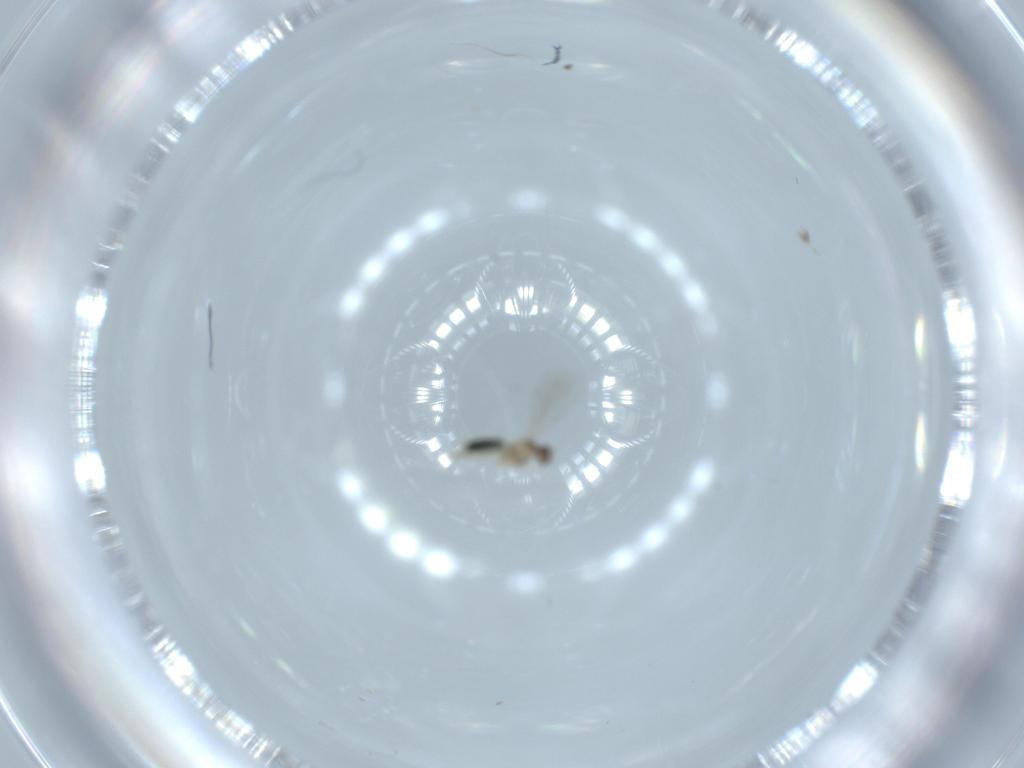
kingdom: Animalia
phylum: Arthropoda
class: Insecta
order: Diptera
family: Cecidomyiidae
